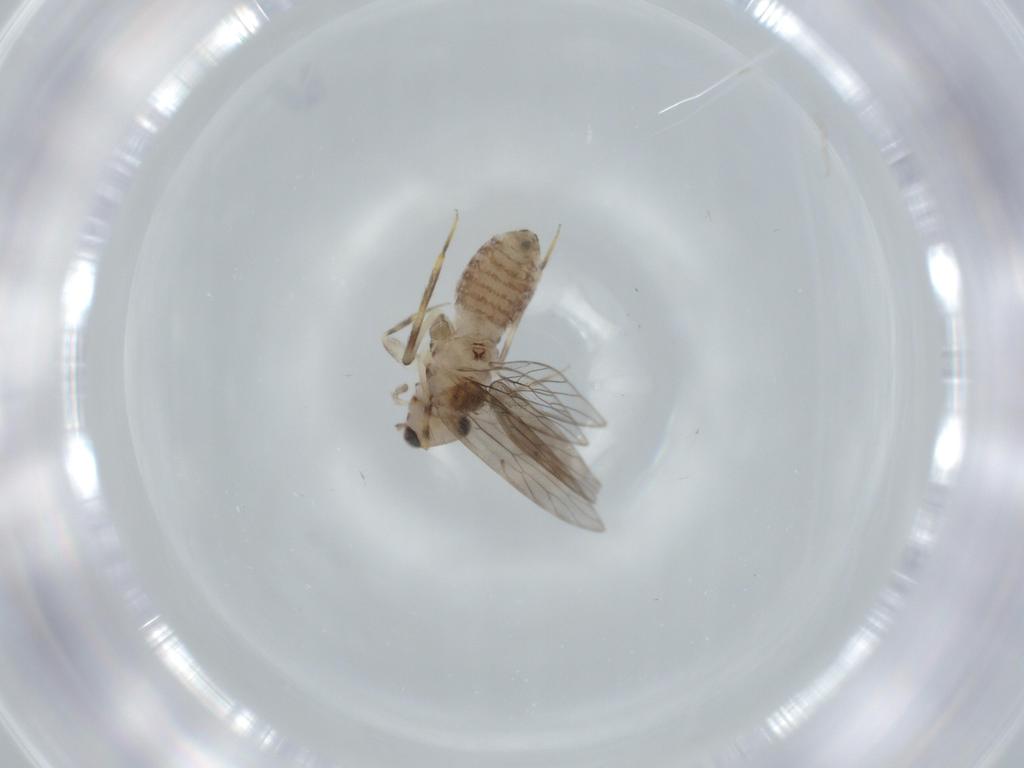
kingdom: Animalia
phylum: Arthropoda
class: Insecta
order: Psocodea
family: Lepidopsocidae
